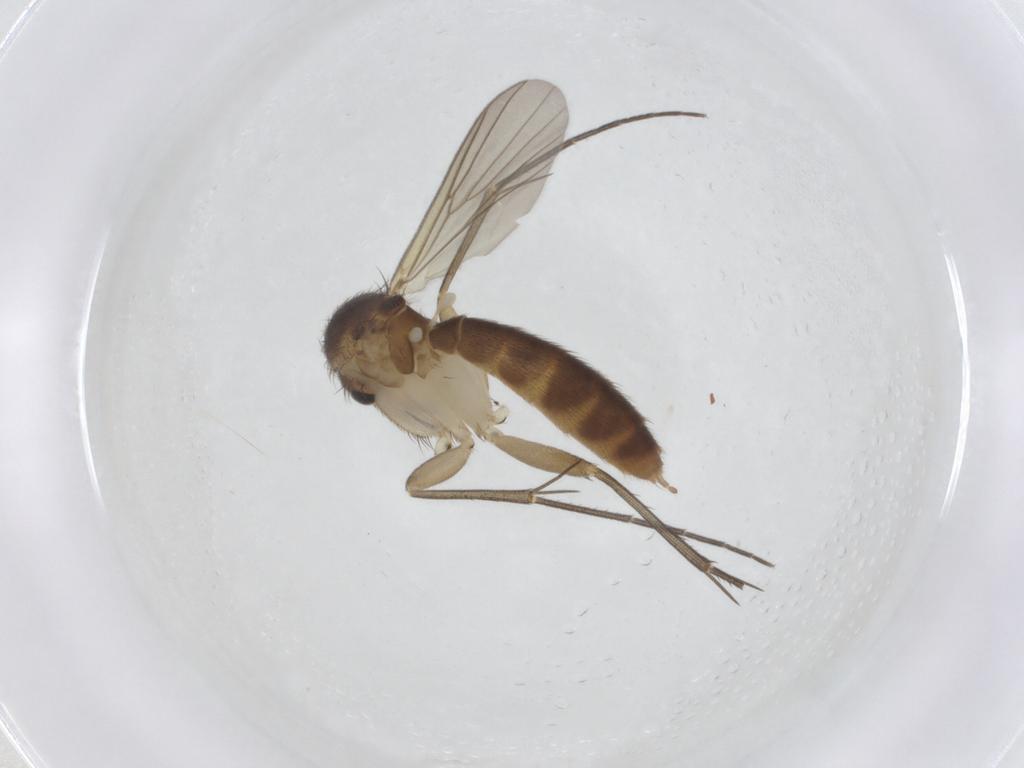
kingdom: Animalia
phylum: Arthropoda
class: Insecta
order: Diptera
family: Mycetophilidae
